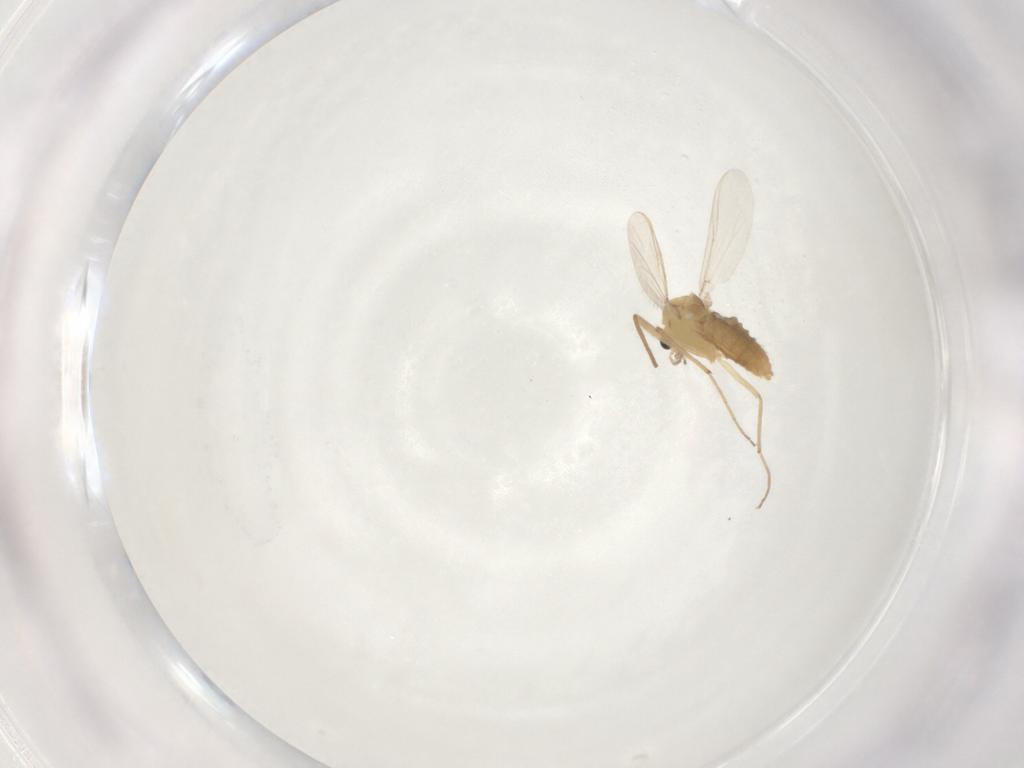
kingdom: Animalia
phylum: Arthropoda
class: Insecta
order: Diptera
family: Chironomidae
